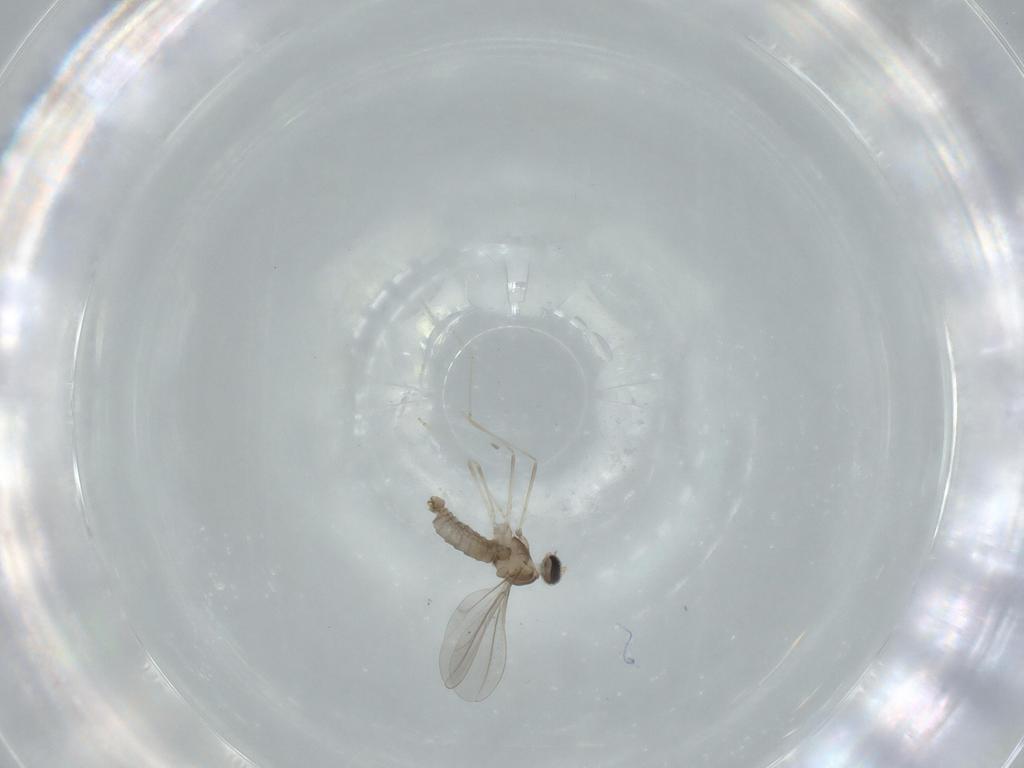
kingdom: Animalia
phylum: Arthropoda
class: Insecta
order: Diptera
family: Cecidomyiidae
